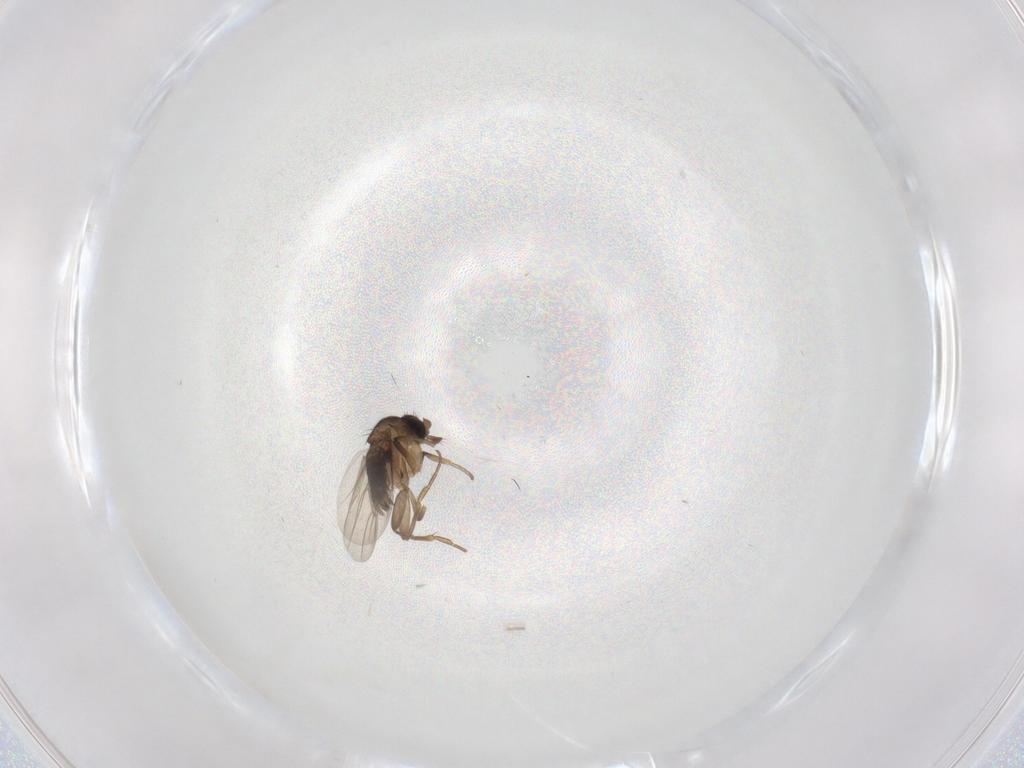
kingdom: Animalia
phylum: Arthropoda
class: Insecta
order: Diptera
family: Phoridae
